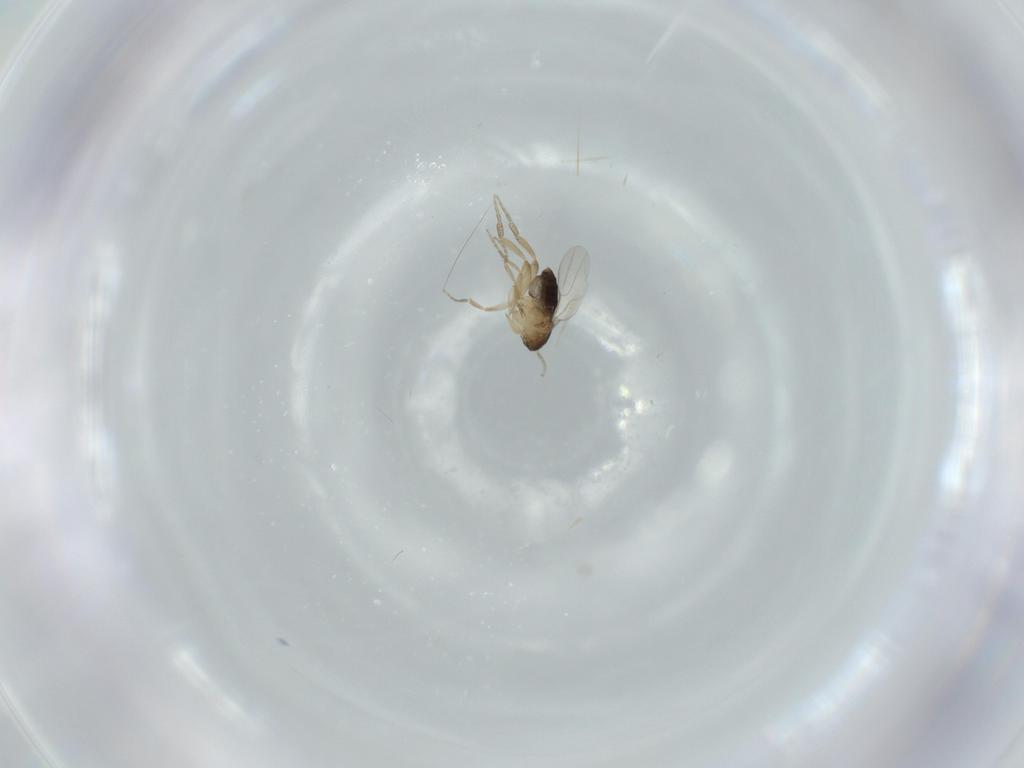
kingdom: Animalia
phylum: Arthropoda
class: Insecta
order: Diptera
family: Phoridae
